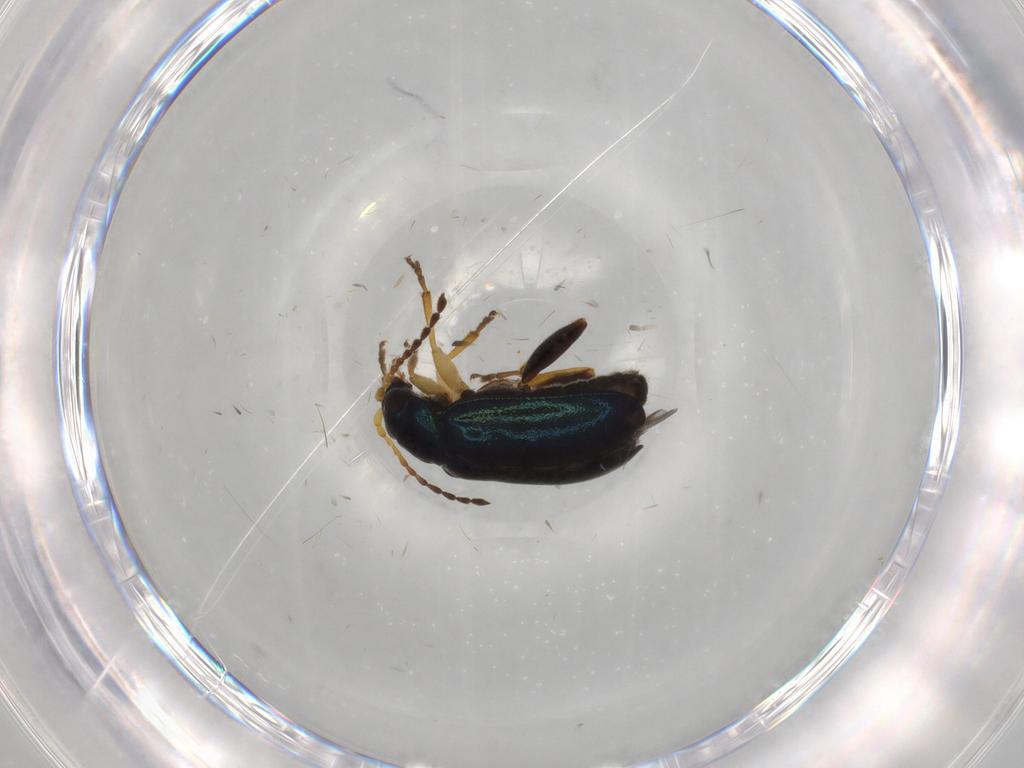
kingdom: Animalia
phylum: Arthropoda
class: Insecta
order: Coleoptera
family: Chrysomelidae
